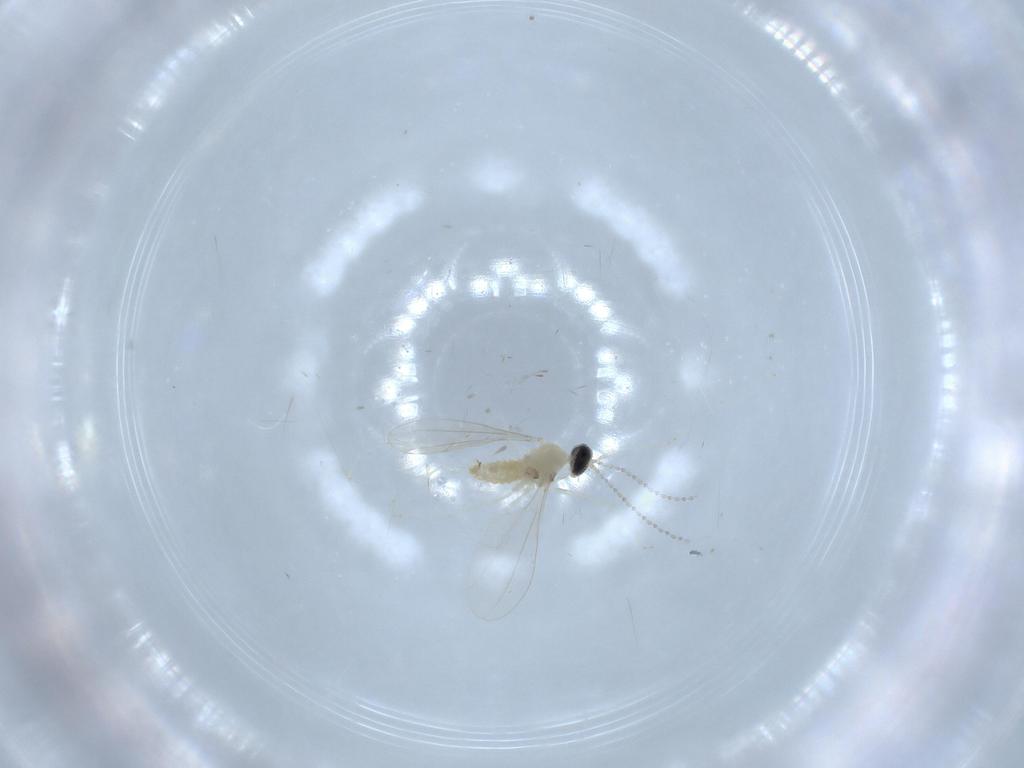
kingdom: Animalia
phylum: Arthropoda
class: Insecta
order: Diptera
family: Cecidomyiidae
